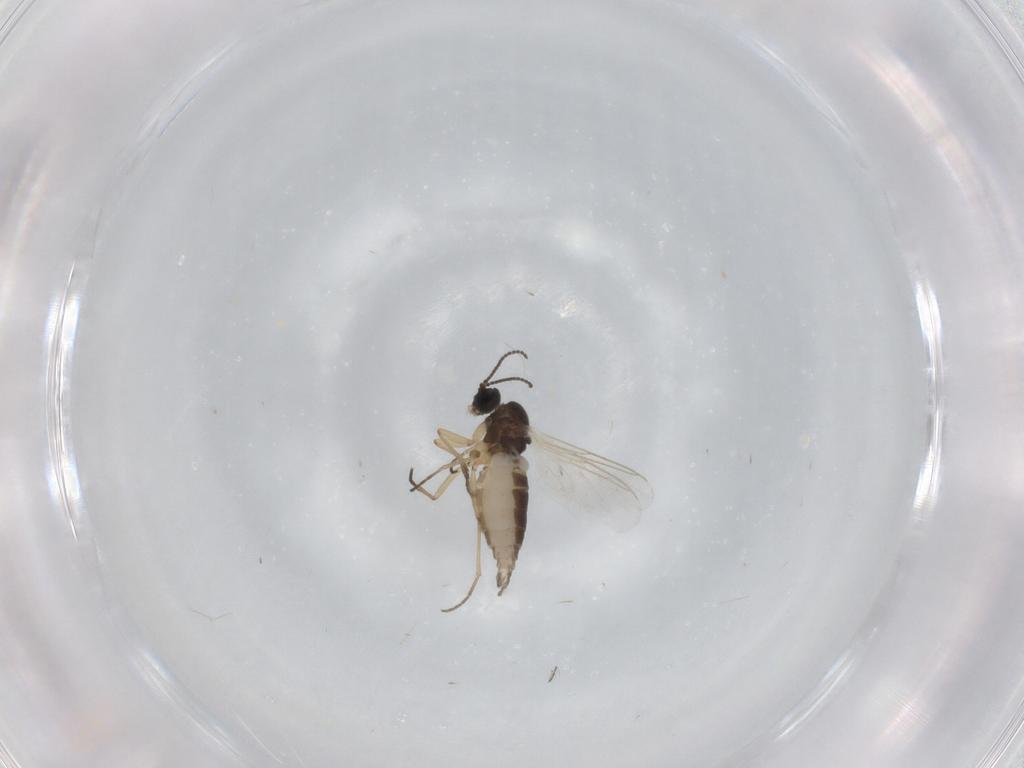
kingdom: Animalia
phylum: Arthropoda
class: Insecta
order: Diptera
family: Sciaridae
